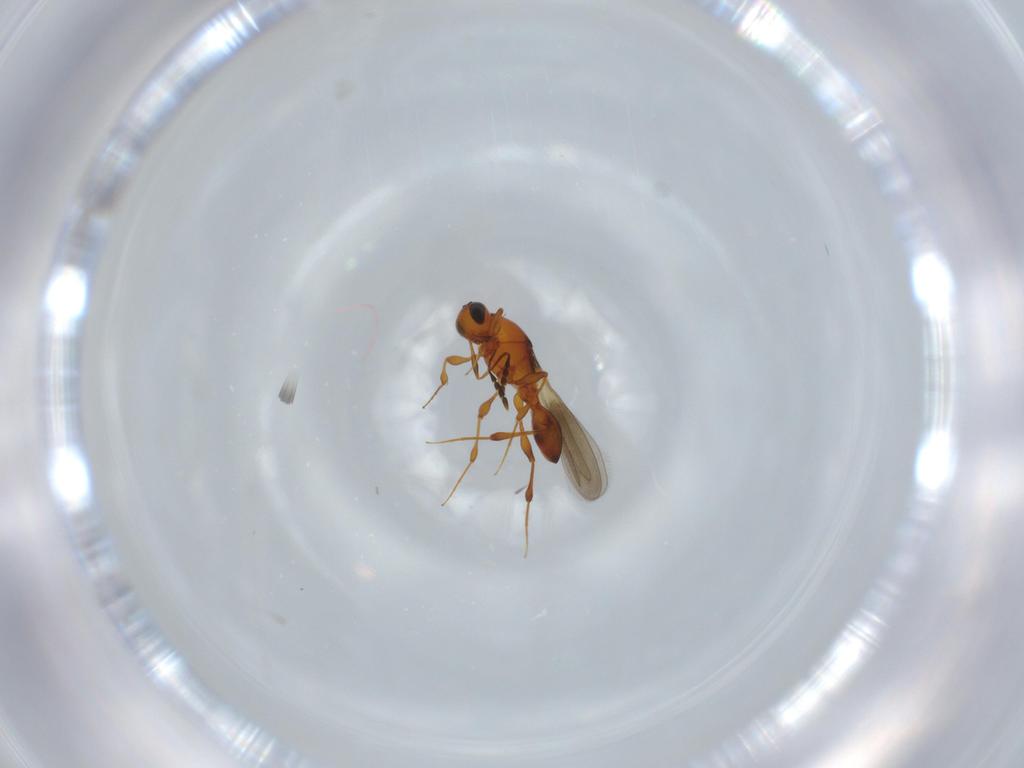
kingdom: Animalia
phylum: Arthropoda
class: Insecta
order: Hymenoptera
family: Platygastridae
